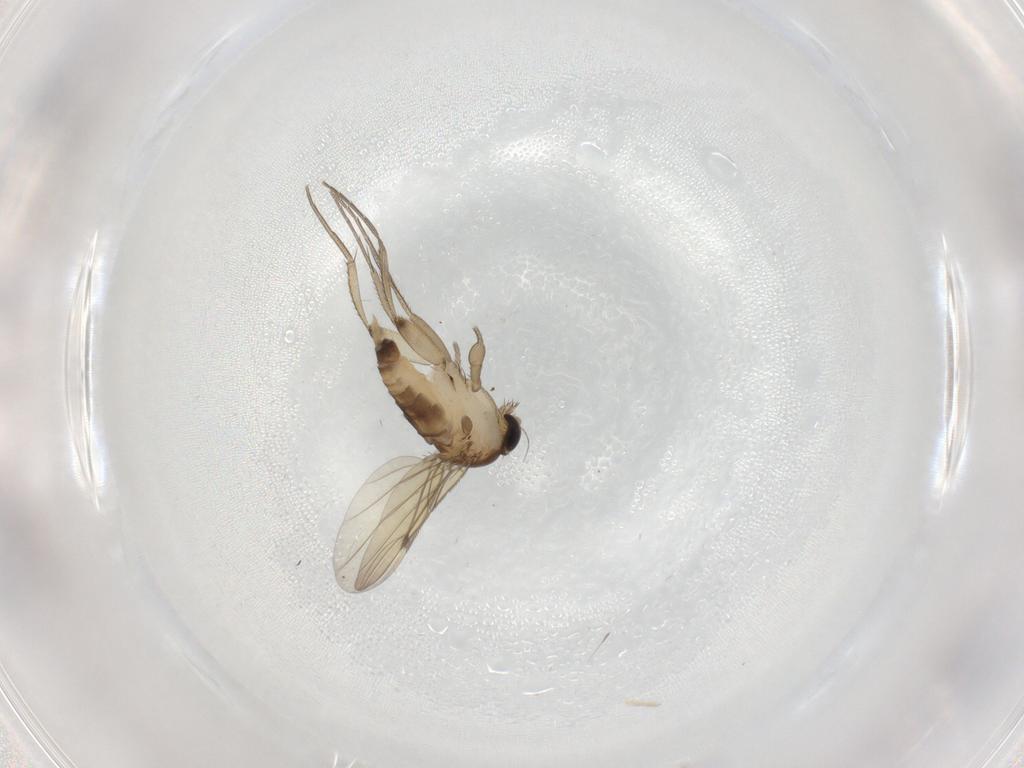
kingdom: Animalia
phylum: Arthropoda
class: Insecta
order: Diptera
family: Phoridae
